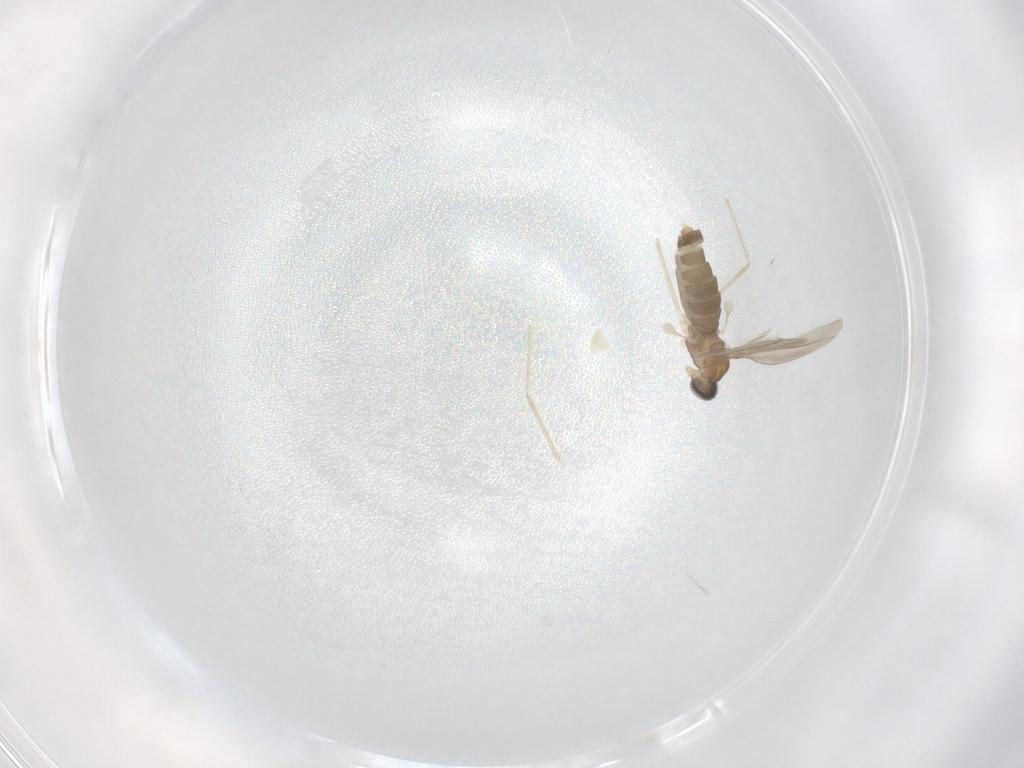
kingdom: Animalia
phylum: Arthropoda
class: Insecta
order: Diptera
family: Cecidomyiidae
